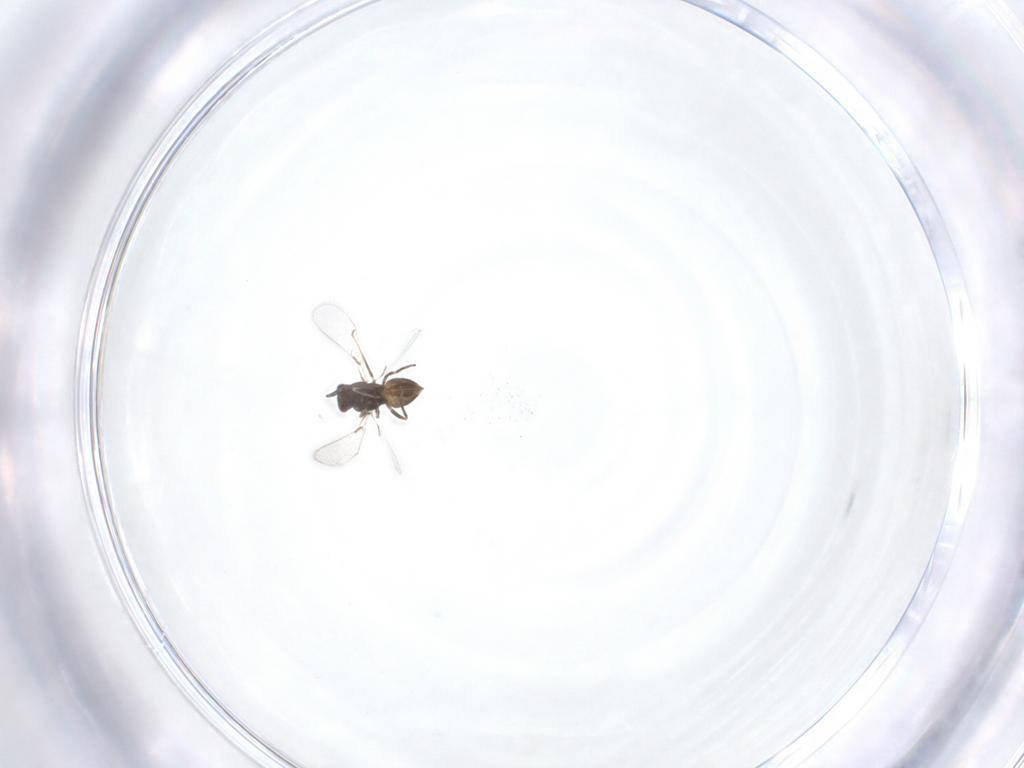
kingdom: Animalia
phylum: Arthropoda
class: Insecta
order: Hymenoptera
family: Mymaridae
